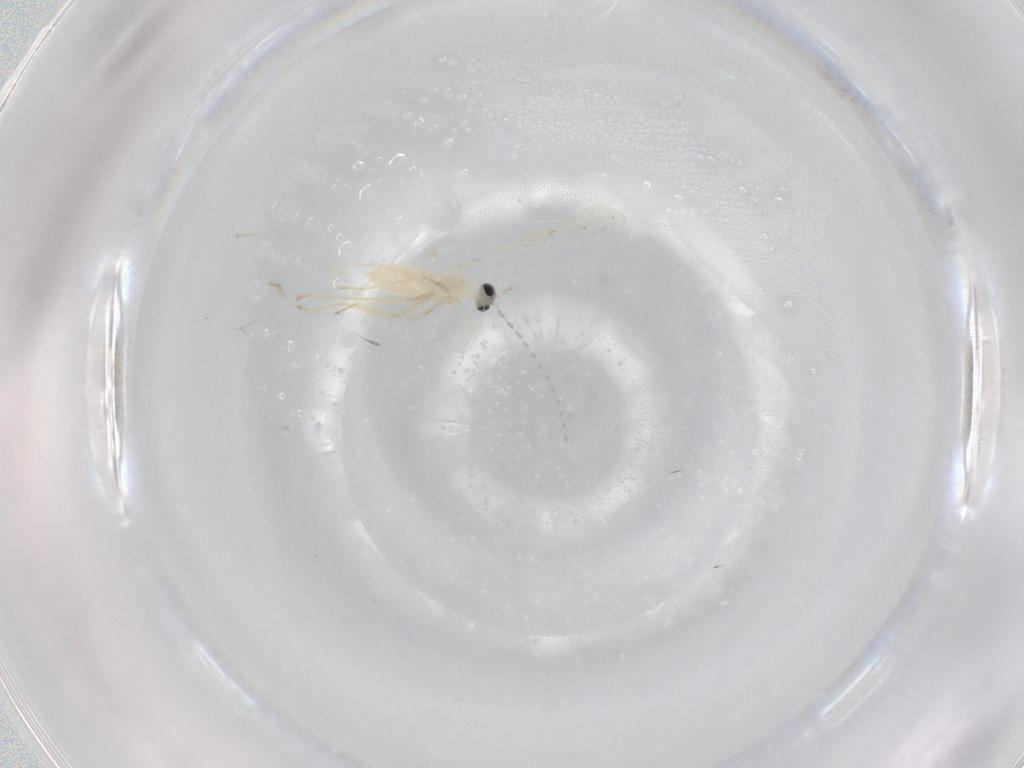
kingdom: Animalia
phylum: Arthropoda
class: Insecta
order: Diptera
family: Cecidomyiidae
